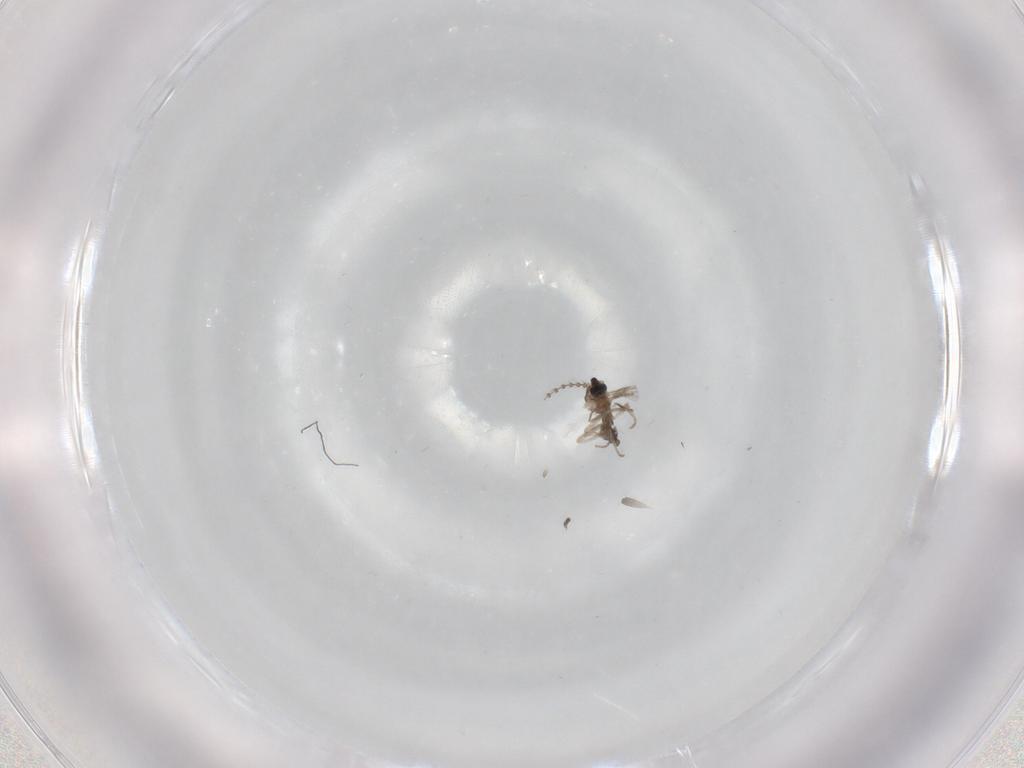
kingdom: Animalia
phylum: Arthropoda
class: Insecta
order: Diptera
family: Cecidomyiidae
